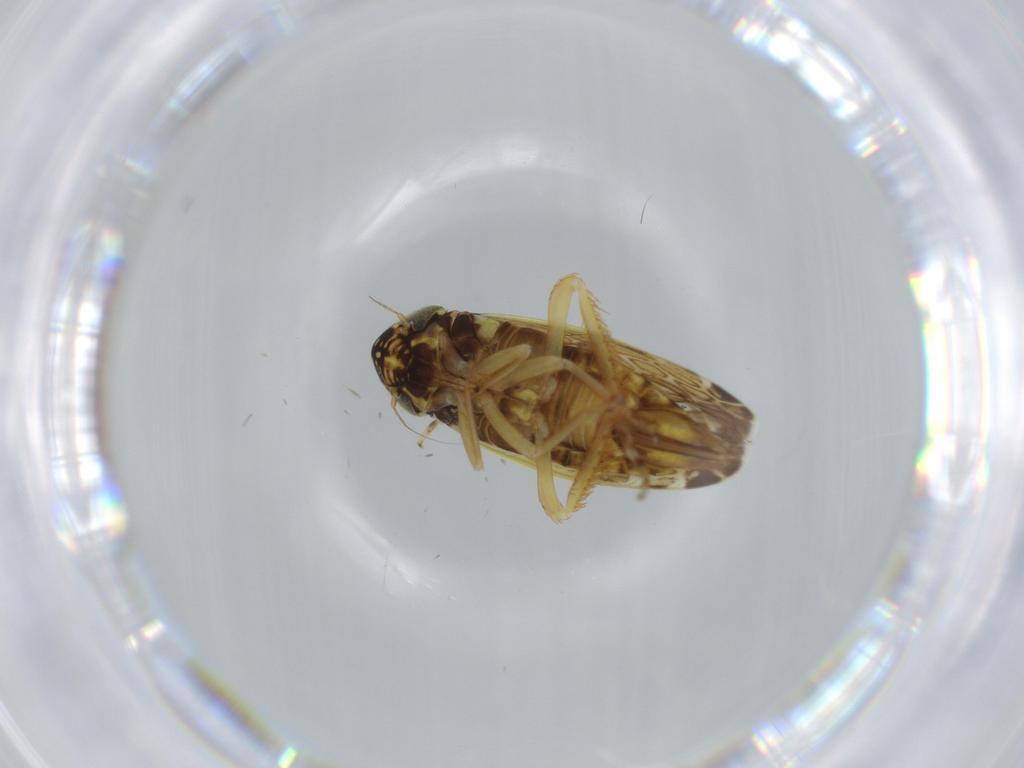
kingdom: Animalia
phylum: Arthropoda
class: Insecta
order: Hemiptera
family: Cicadellidae
